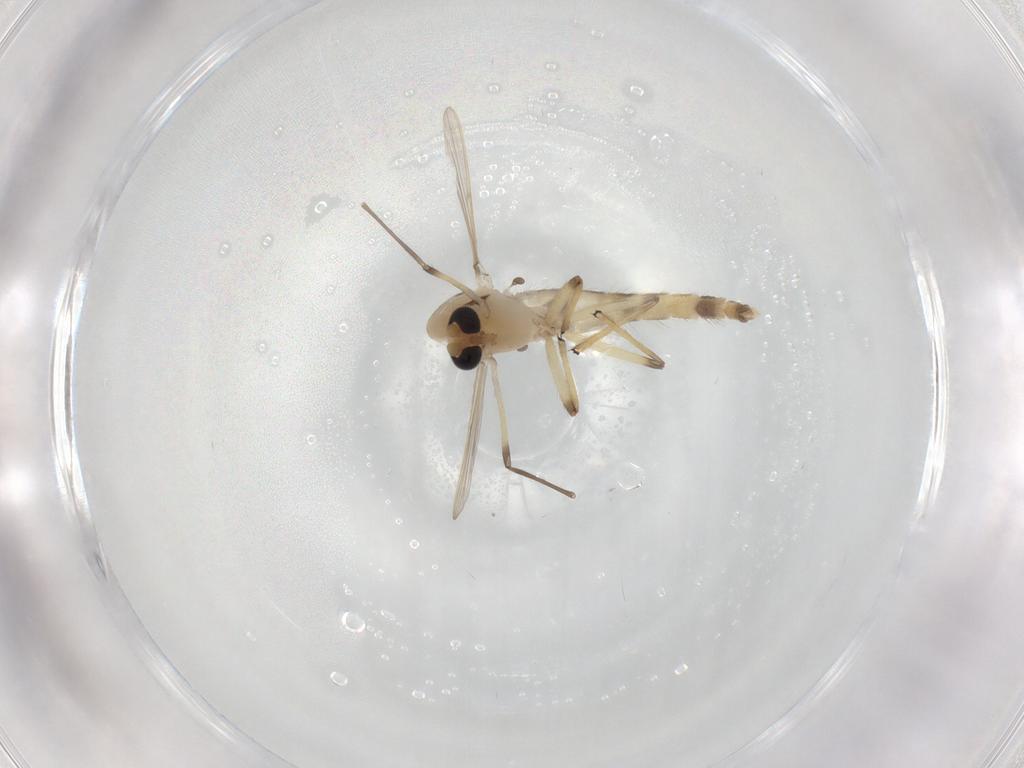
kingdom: Animalia
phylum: Arthropoda
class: Insecta
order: Diptera
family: Chironomidae
